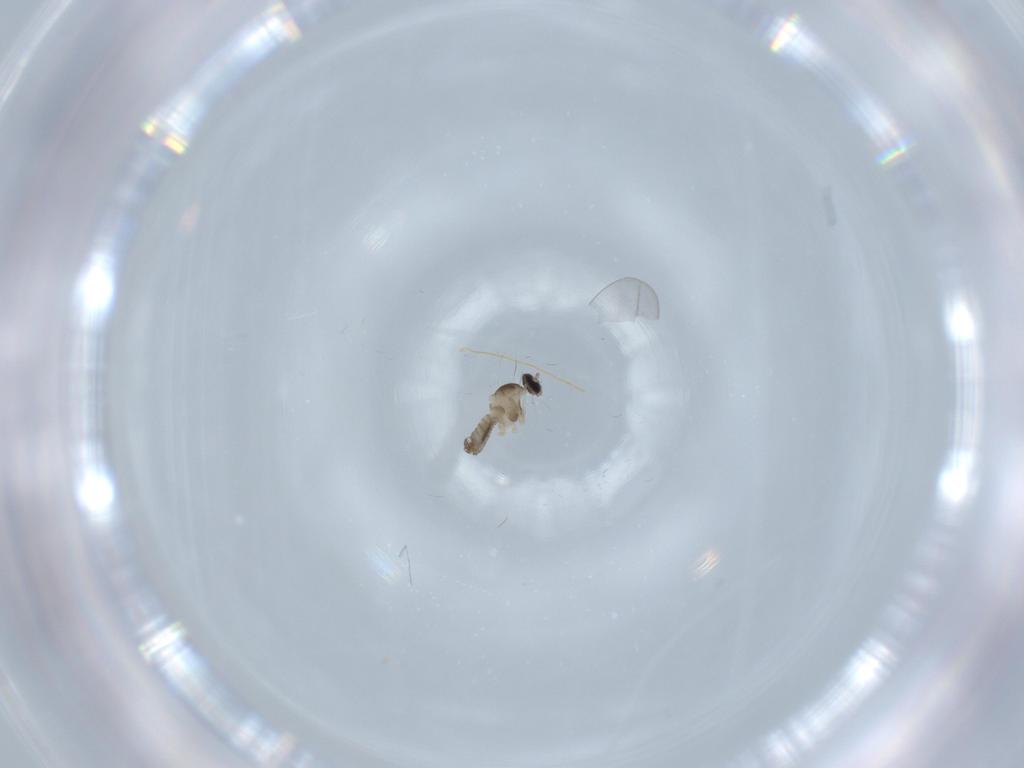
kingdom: Animalia
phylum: Arthropoda
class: Insecta
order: Diptera
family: Cecidomyiidae
